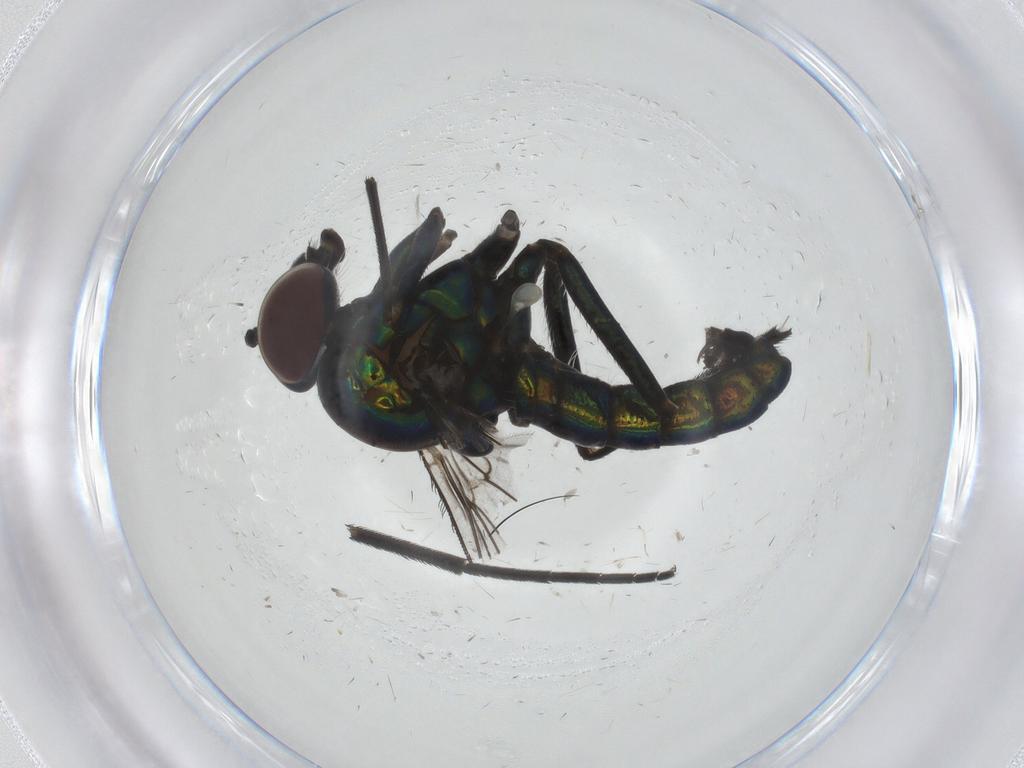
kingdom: Animalia
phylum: Arthropoda
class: Insecta
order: Diptera
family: Dolichopodidae
